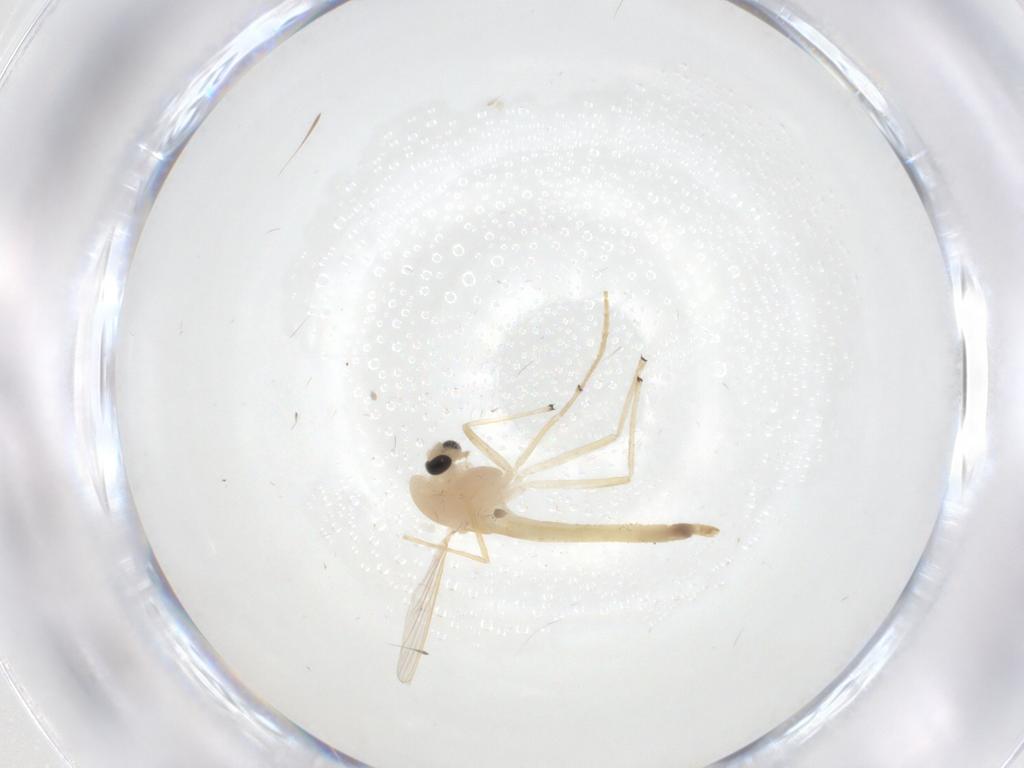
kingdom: Animalia
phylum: Arthropoda
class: Insecta
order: Diptera
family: Chironomidae
